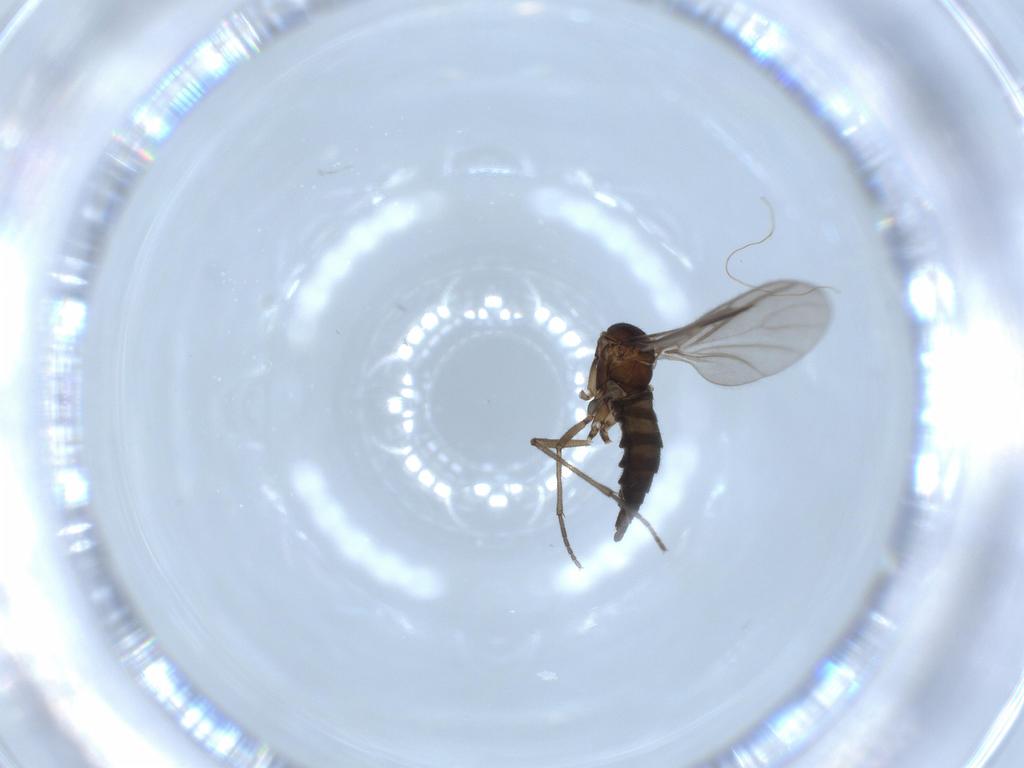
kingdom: Animalia
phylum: Arthropoda
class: Insecta
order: Diptera
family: Sciaridae
